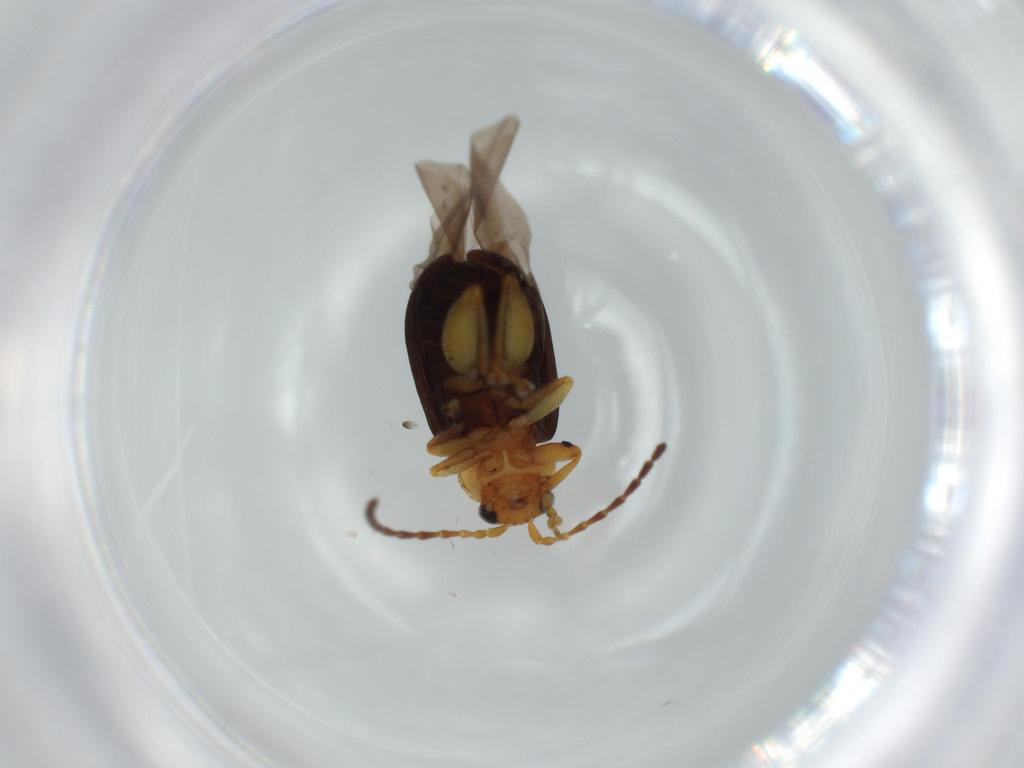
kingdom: Animalia
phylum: Arthropoda
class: Insecta
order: Coleoptera
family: Chrysomelidae
